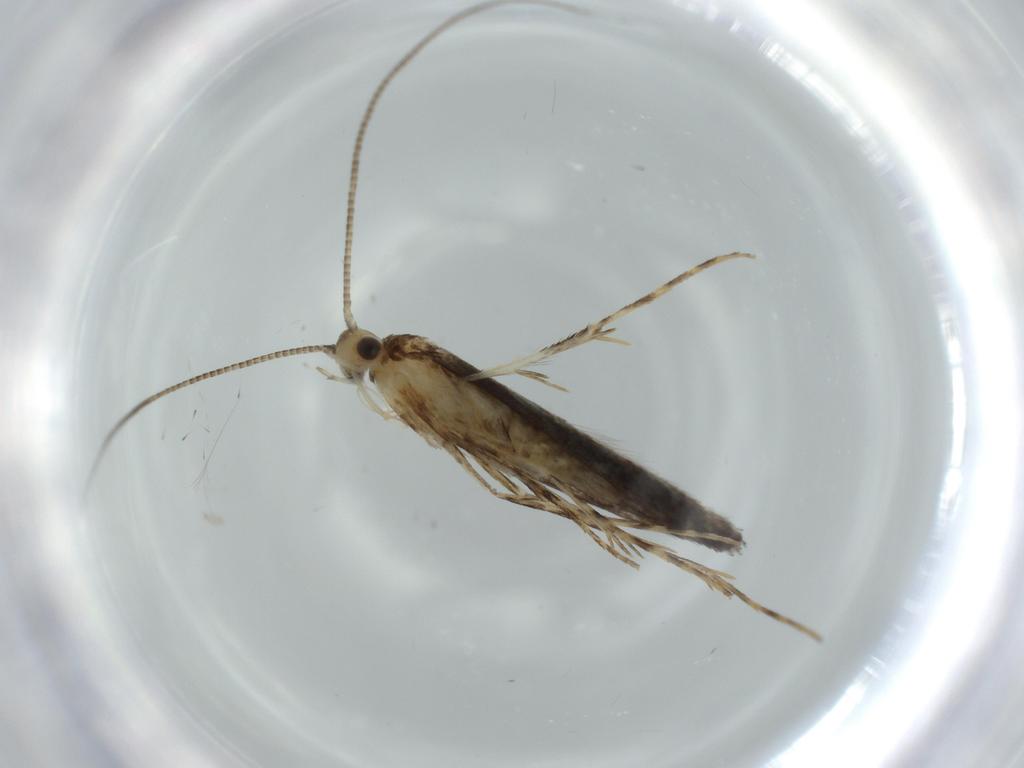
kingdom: Animalia
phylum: Arthropoda
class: Insecta
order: Lepidoptera
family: Gracillariidae
